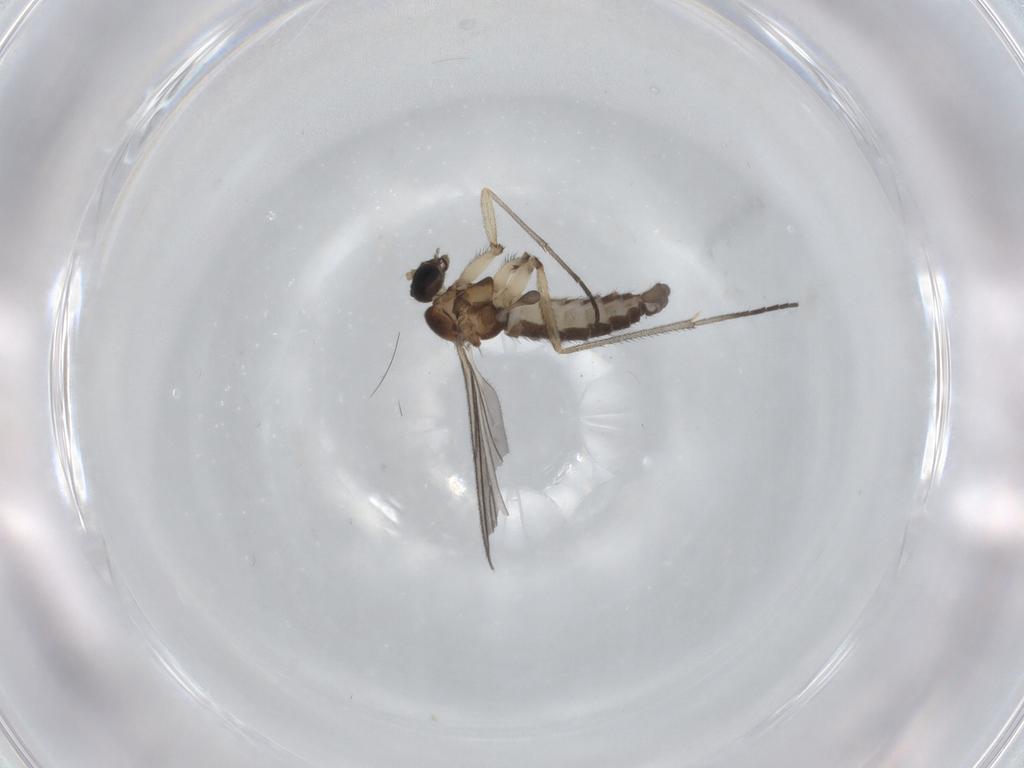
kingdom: Animalia
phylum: Arthropoda
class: Insecta
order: Diptera
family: Sciaridae
